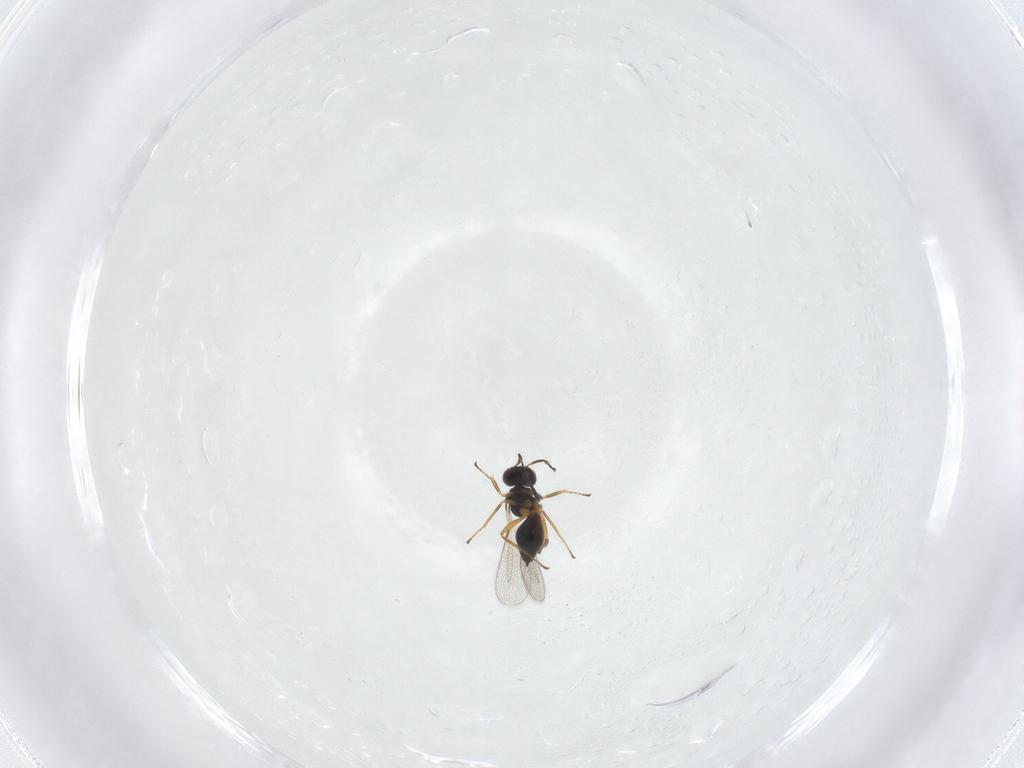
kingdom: Animalia
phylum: Arthropoda
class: Insecta
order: Hymenoptera
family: Mymaridae
